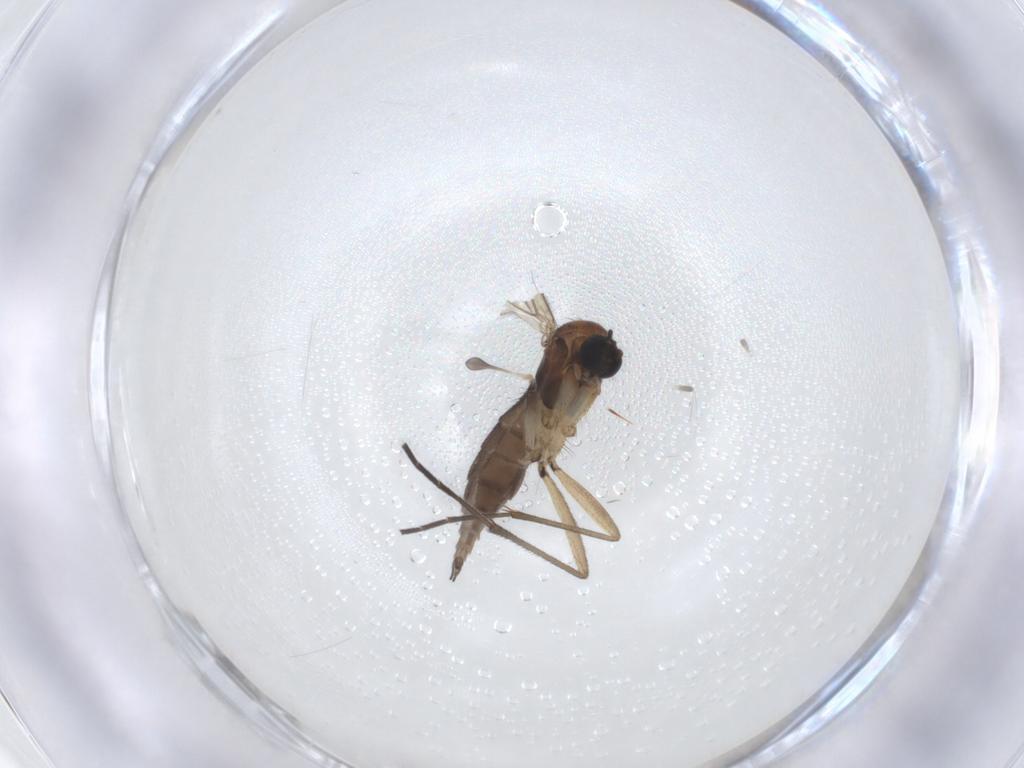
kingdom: Animalia
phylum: Arthropoda
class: Insecta
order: Diptera
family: Sciaridae
